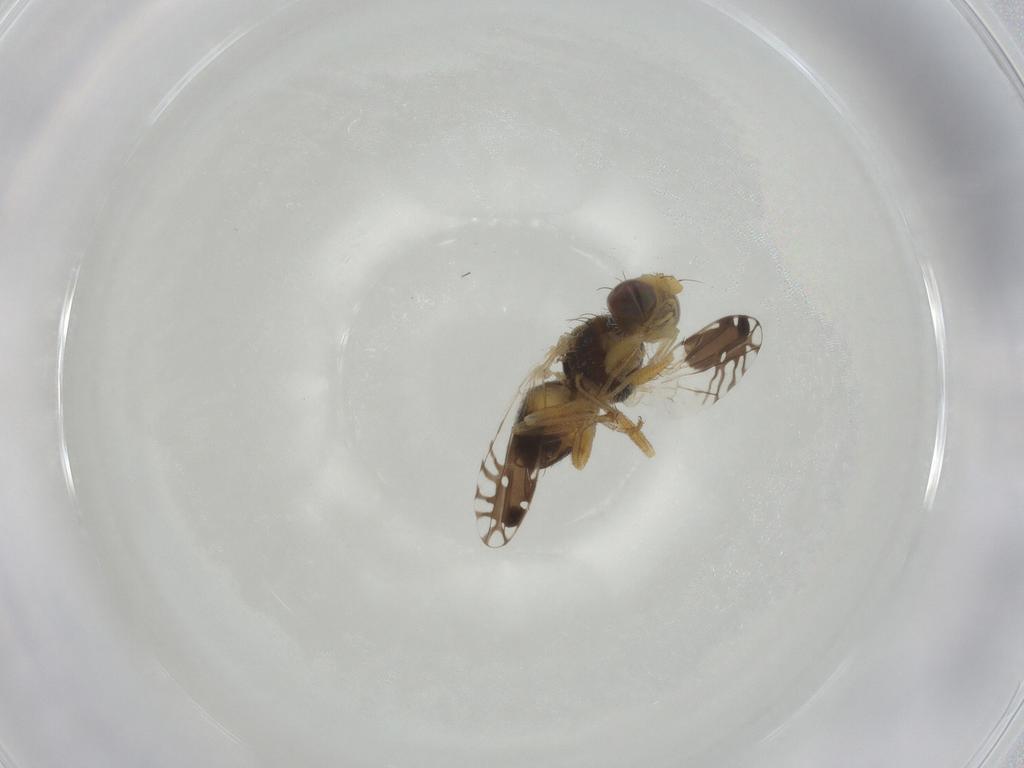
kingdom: Animalia
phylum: Arthropoda
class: Insecta
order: Diptera
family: Tephritidae
